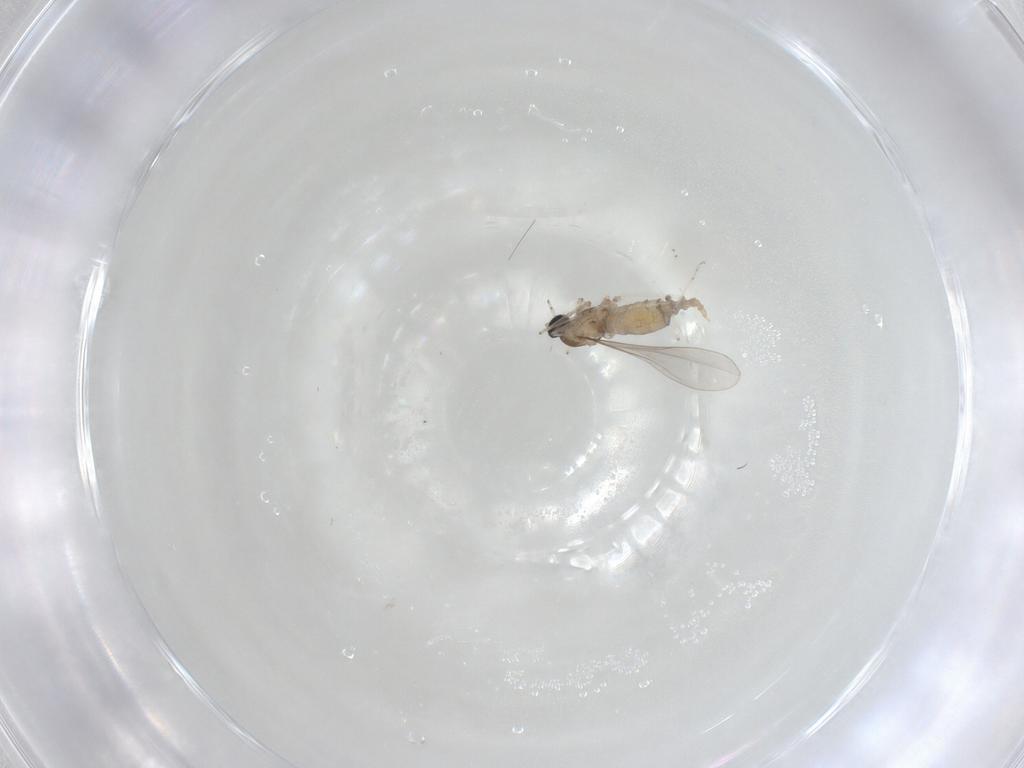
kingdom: Animalia
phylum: Arthropoda
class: Insecta
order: Diptera
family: Cecidomyiidae
